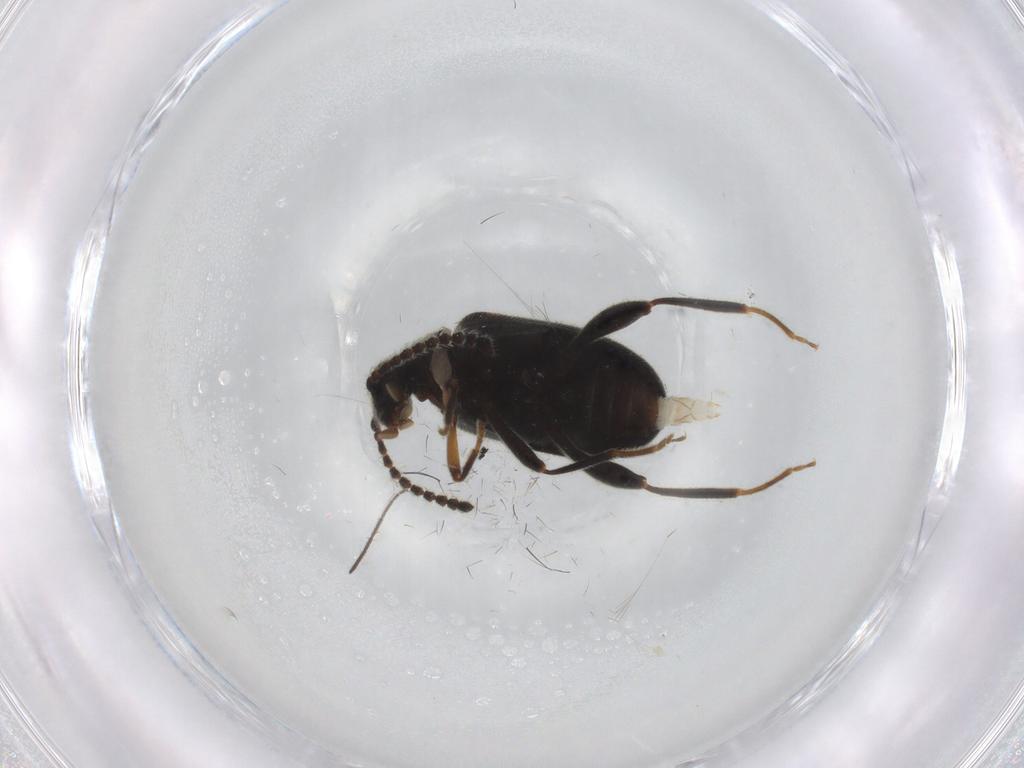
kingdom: Animalia
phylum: Arthropoda
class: Insecta
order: Coleoptera
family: Aderidae
